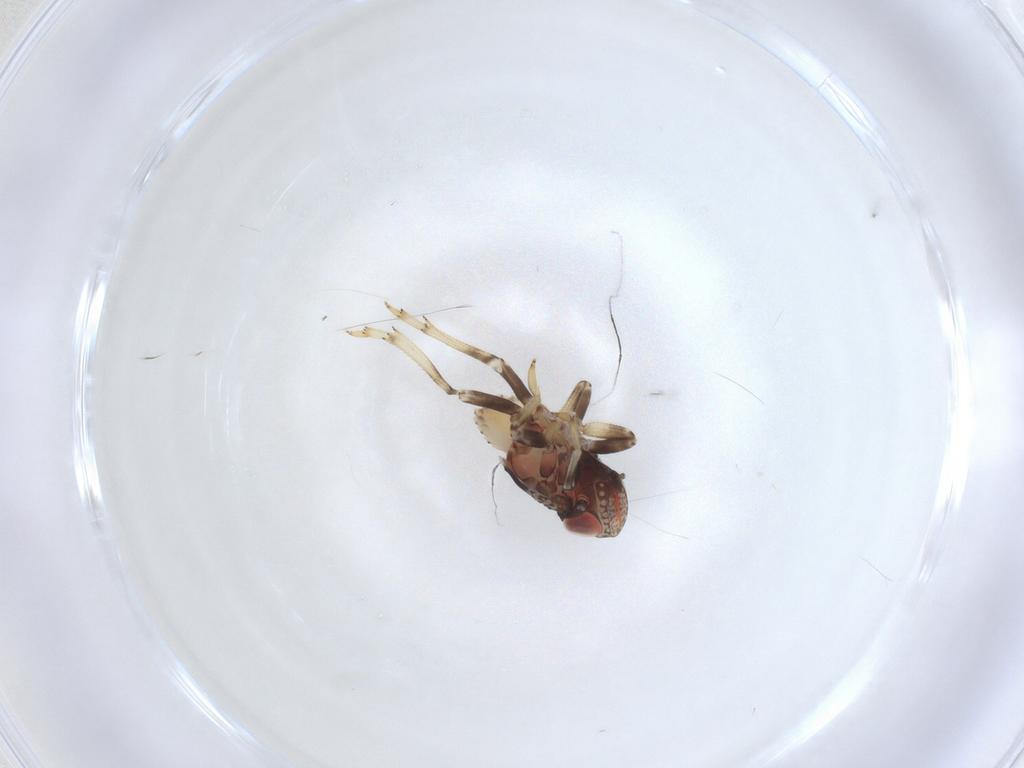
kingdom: Animalia
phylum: Arthropoda
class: Insecta
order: Hemiptera
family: Issidae
